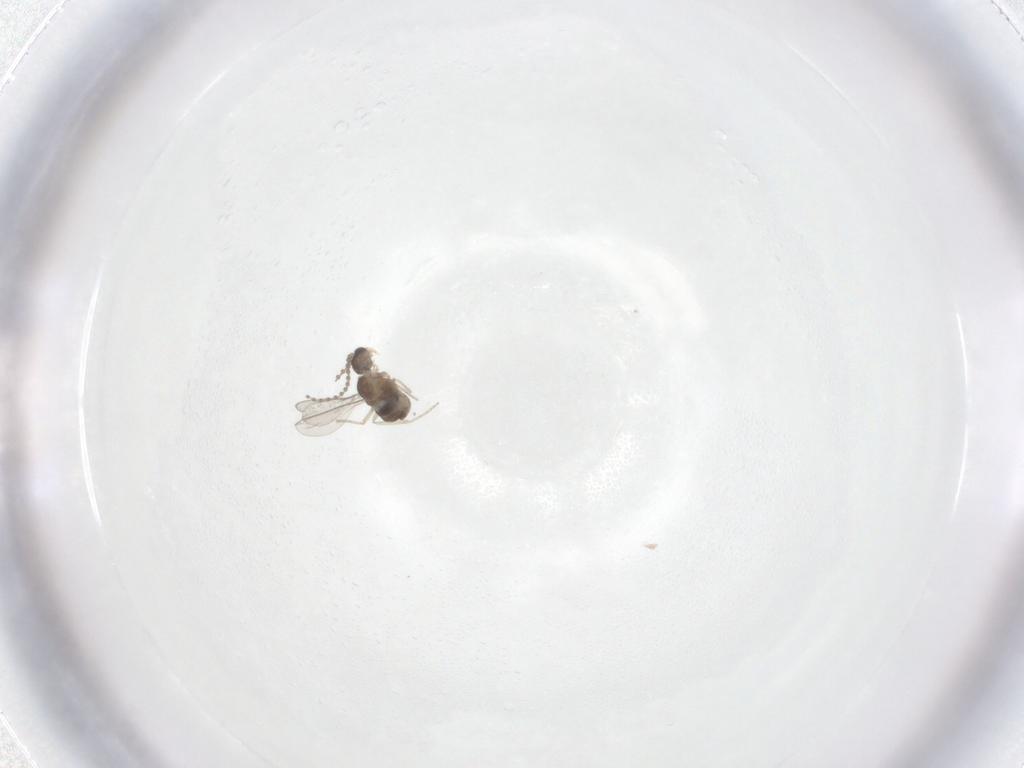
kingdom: Animalia
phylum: Arthropoda
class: Insecta
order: Diptera
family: Cecidomyiidae
